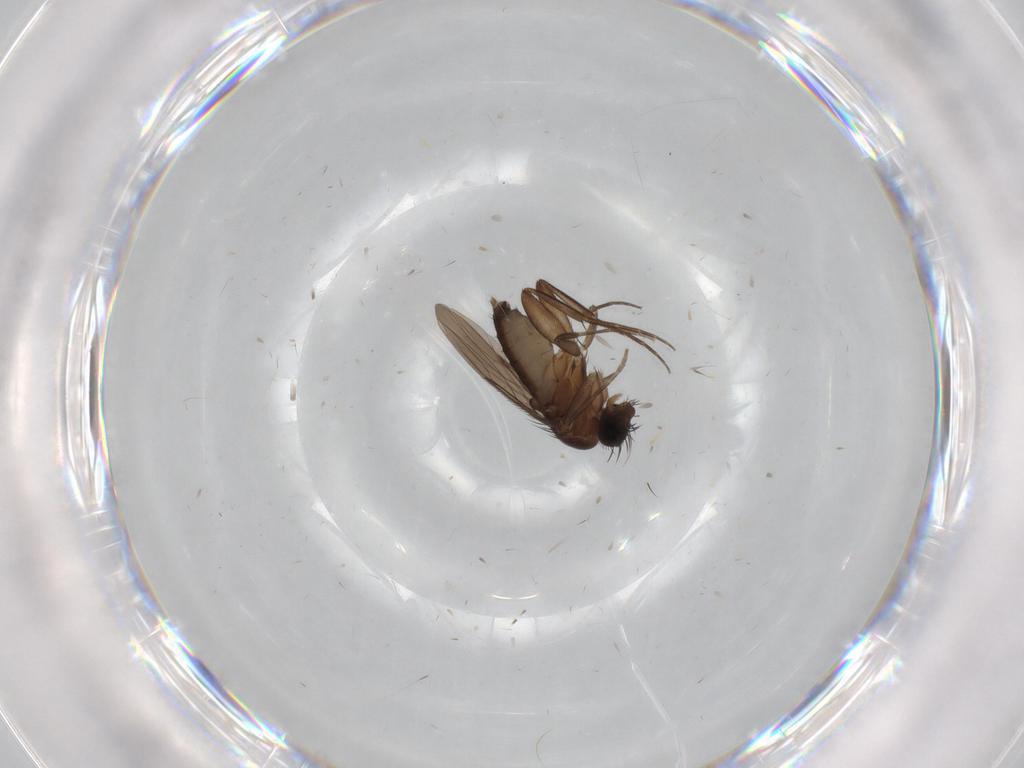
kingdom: Animalia
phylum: Arthropoda
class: Insecta
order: Diptera
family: Phoridae
